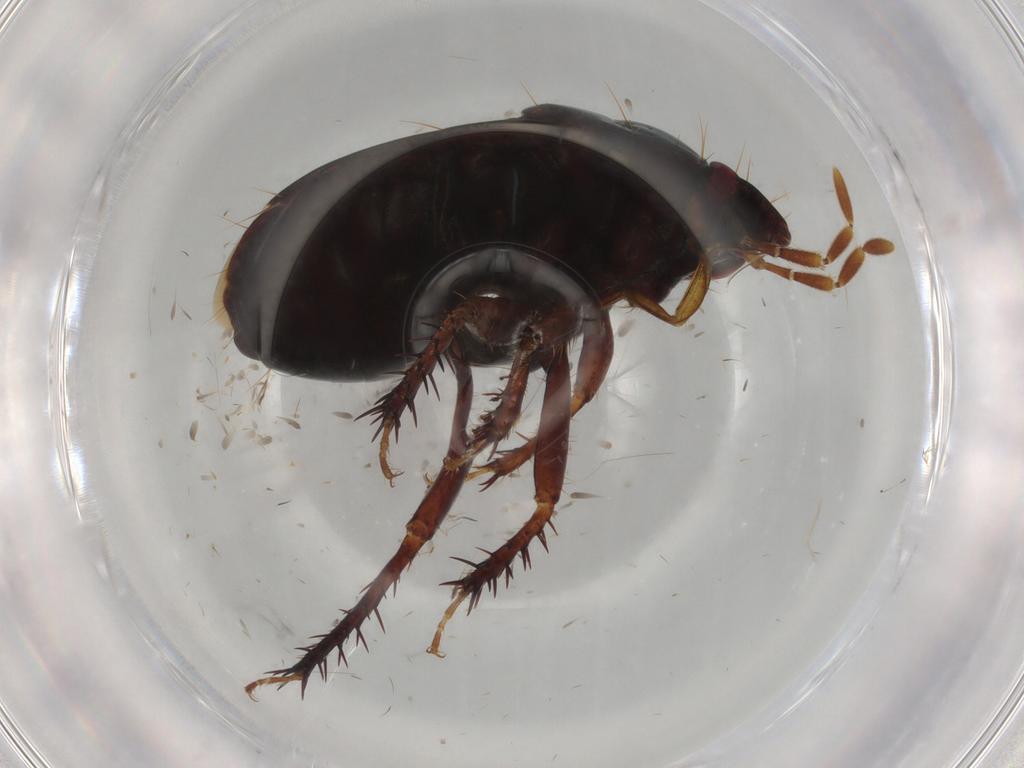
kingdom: Animalia
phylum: Arthropoda
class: Insecta
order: Hemiptera
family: Cydnidae
